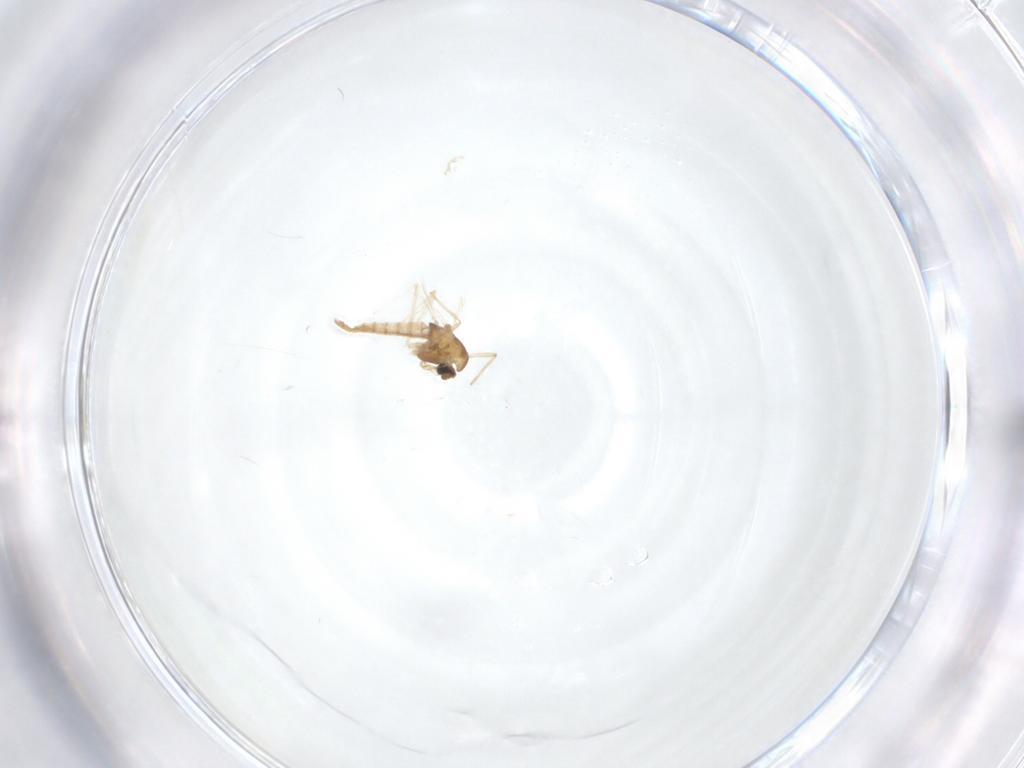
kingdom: Animalia
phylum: Arthropoda
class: Insecta
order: Diptera
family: Chironomidae
